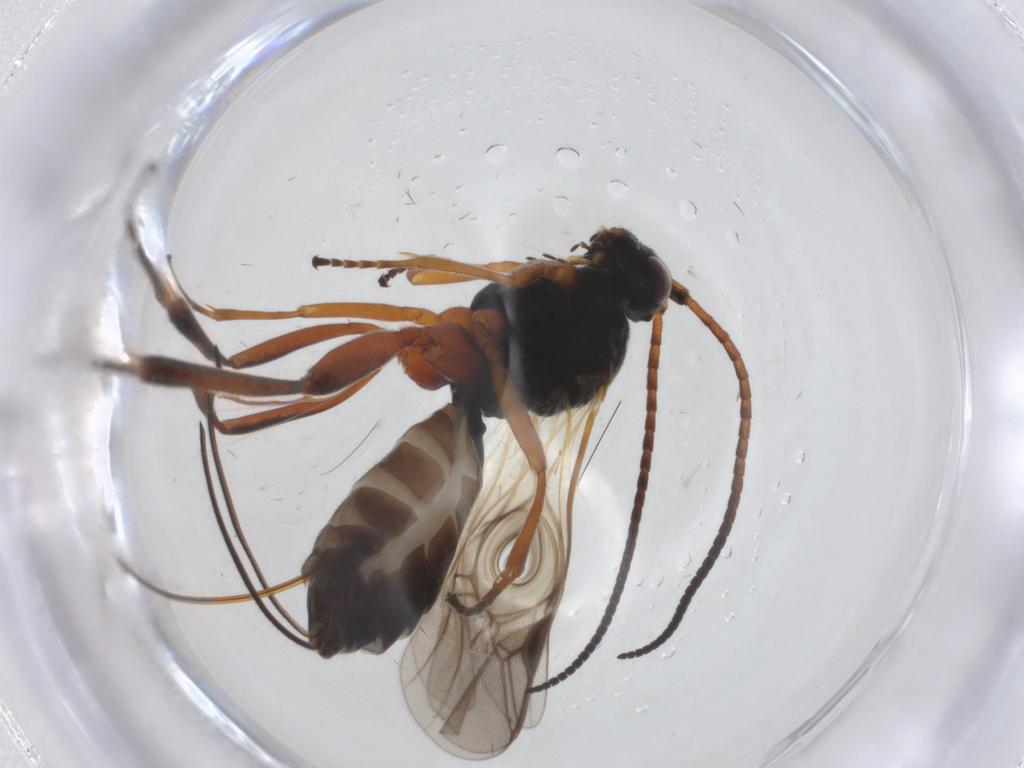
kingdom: Animalia
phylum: Arthropoda
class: Insecta
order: Hymenoptera
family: Braconidae
